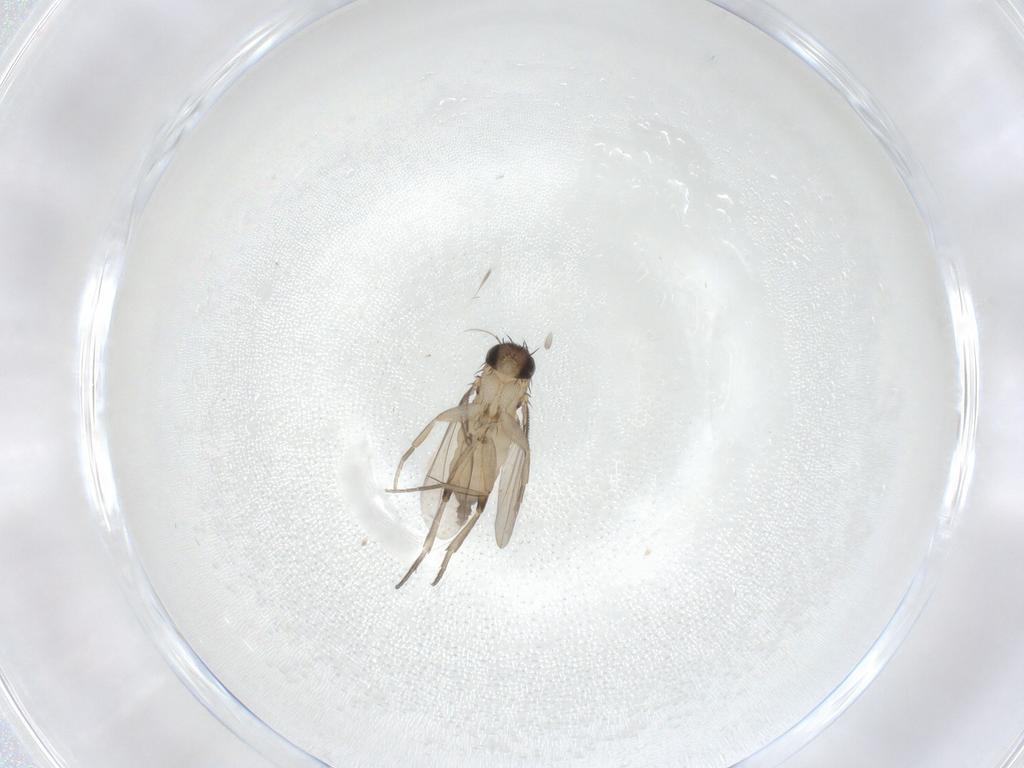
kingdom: Animalia
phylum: Arthropoda
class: Insecta
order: Diptera
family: Phoridae
